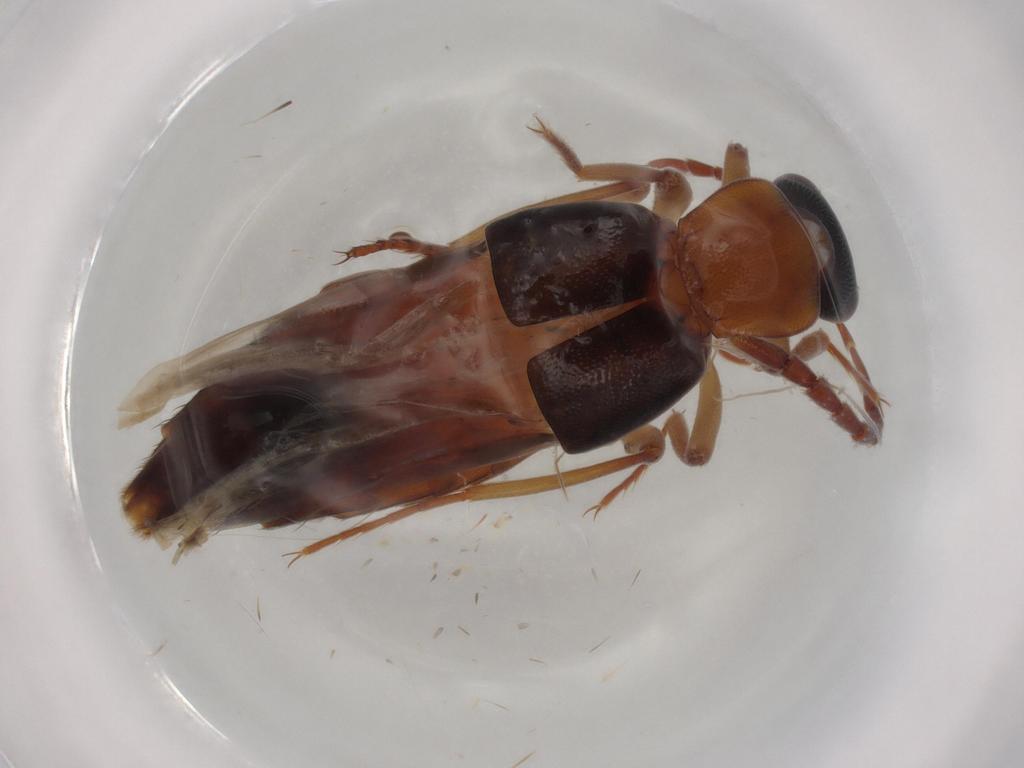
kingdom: Animalia
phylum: Arthropoda
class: Insecta
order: Coleoptera
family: Staphylinidae
